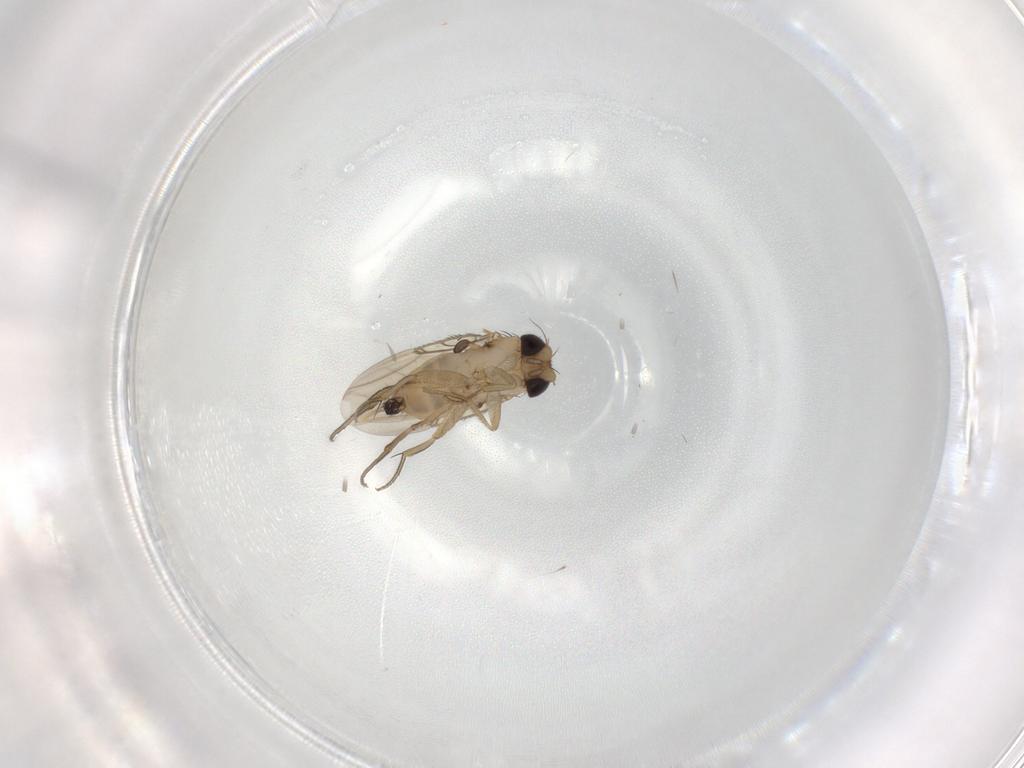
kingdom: Animalia
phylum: Arthropoda
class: Insecta
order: Diptera
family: Phoridae
